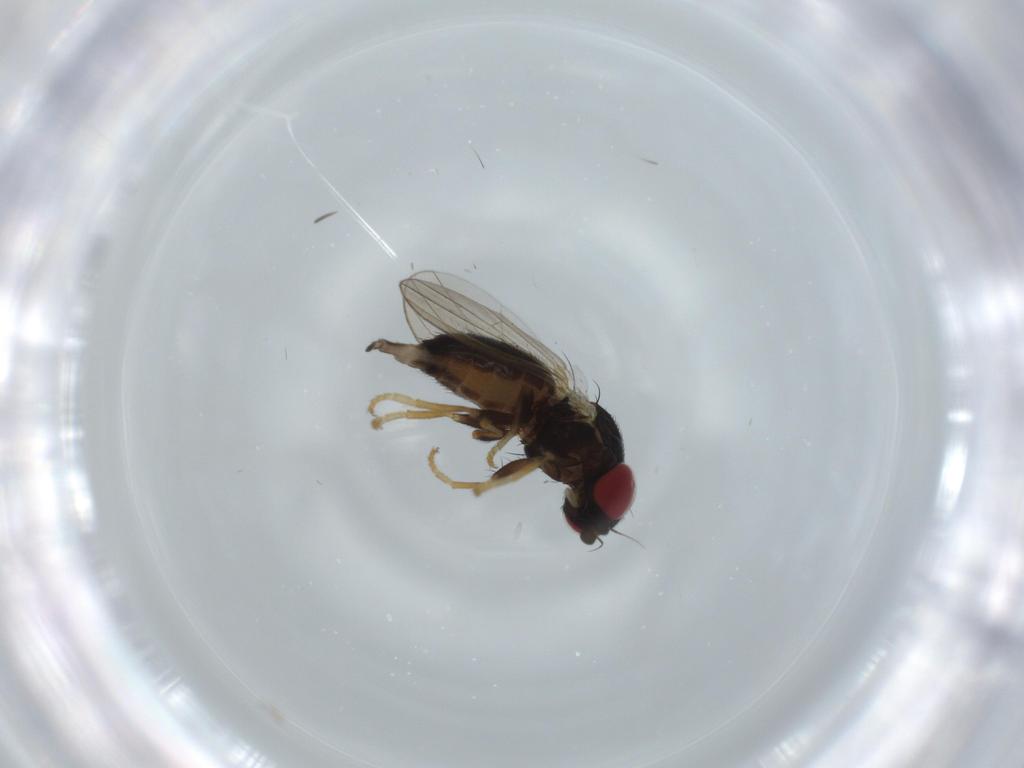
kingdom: Animalia
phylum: Arthropoda
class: Insecta
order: Diptera
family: Chamaemyiidae
